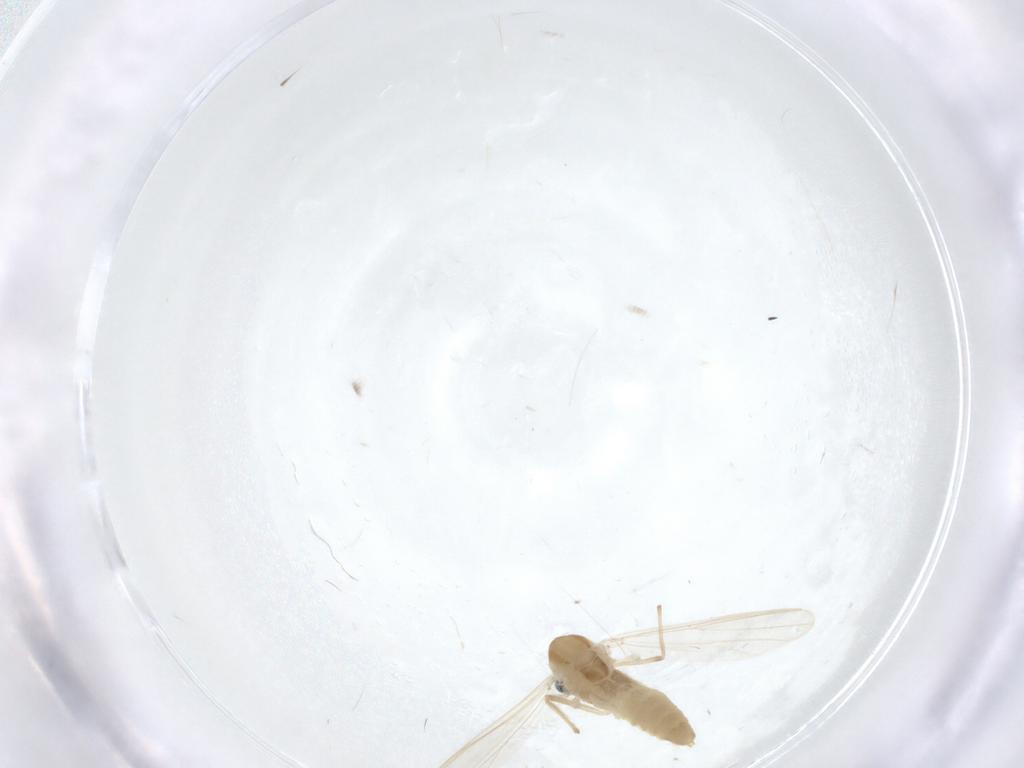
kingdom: Animalia
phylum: Arthropoda
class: Insecta
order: Diptera
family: Chironomidae
